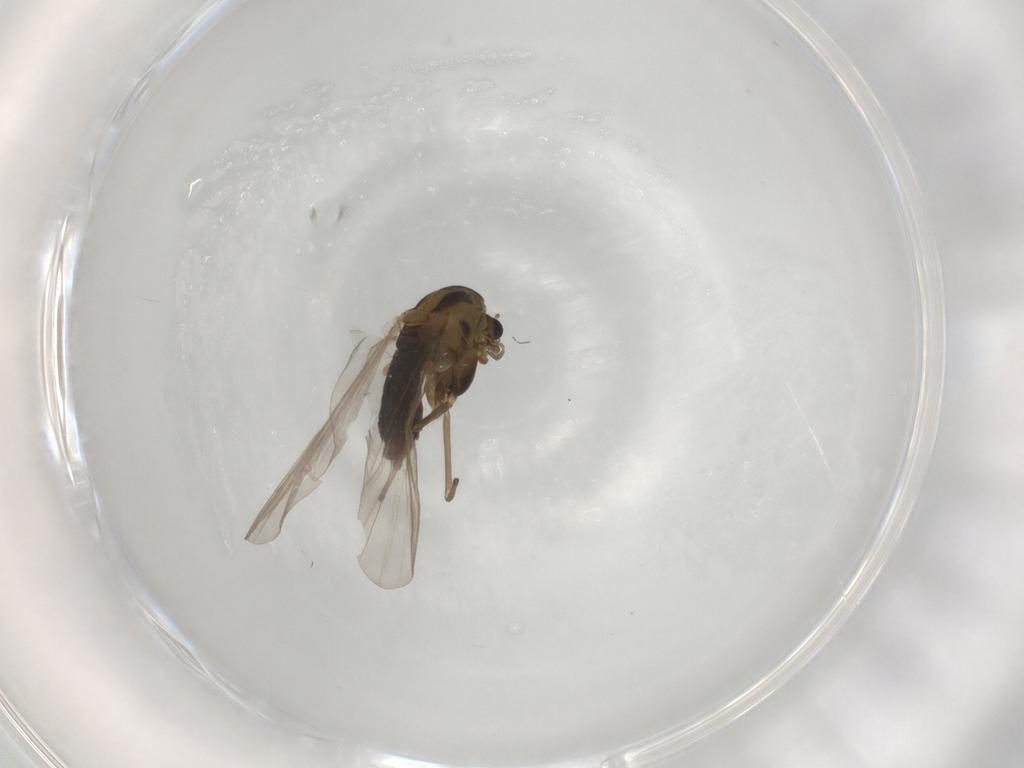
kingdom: Animalia
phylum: Arthropoda
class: Insecta
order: Diptera
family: Chironomidae
